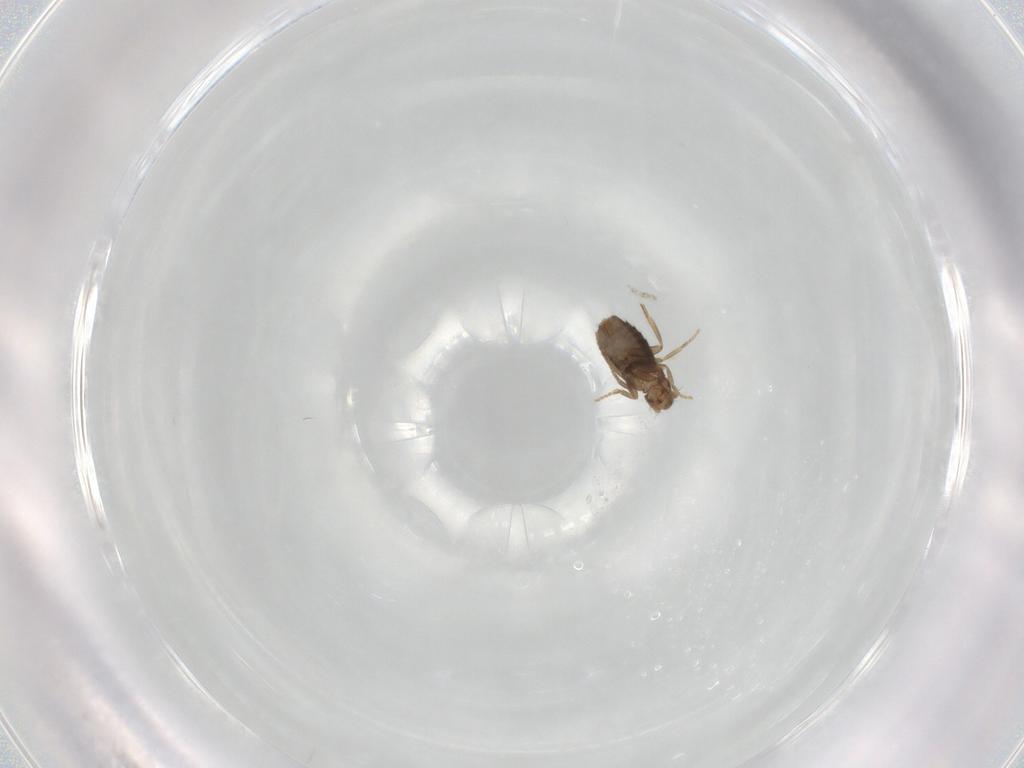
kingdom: Animalia
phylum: Arthropoda
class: Insecta
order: Diptera
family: Phoridae
